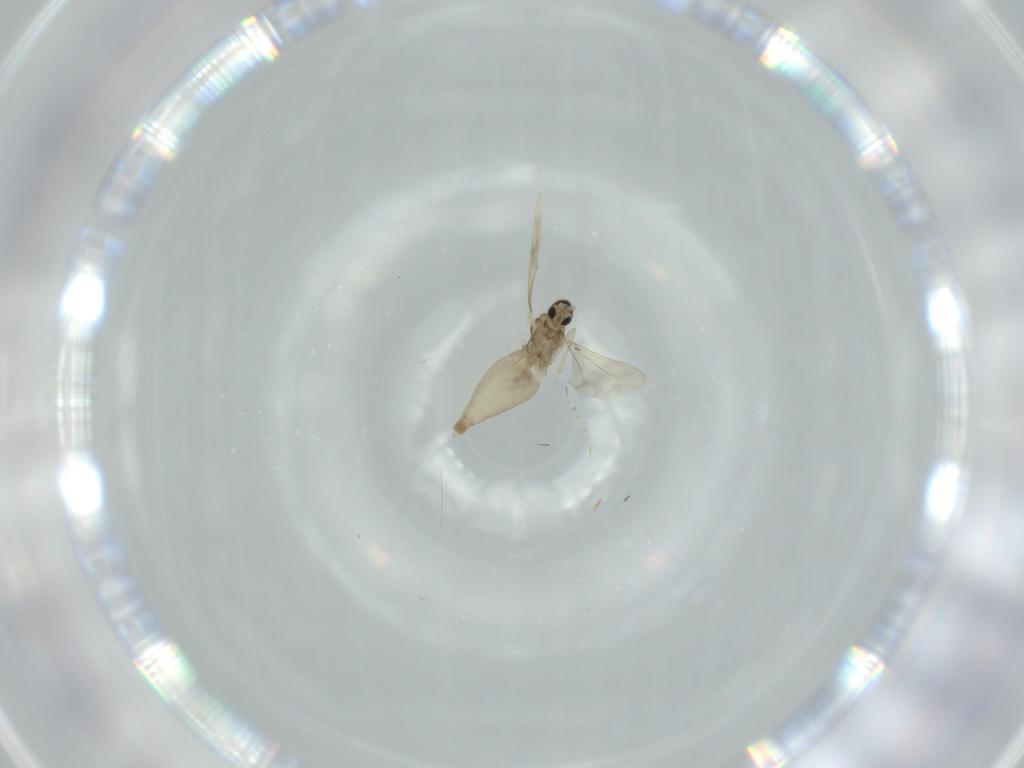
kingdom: Animalia
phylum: Arthropoda
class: Insecta
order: Diptera
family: Cecidomyiidae
